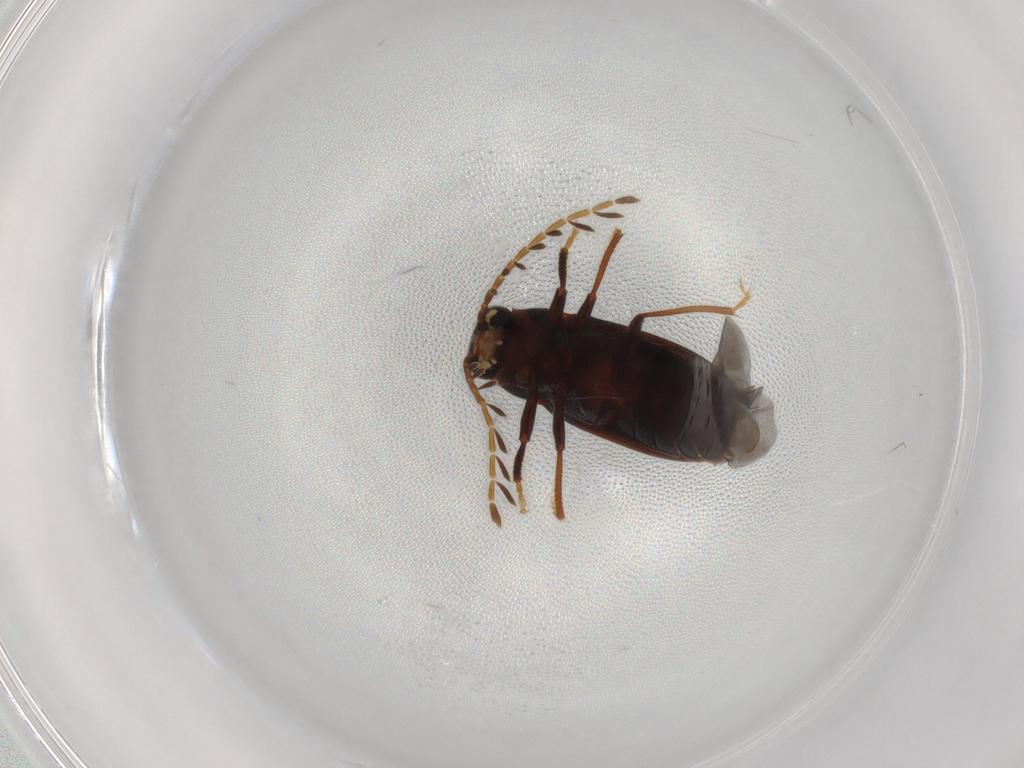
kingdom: Animalia
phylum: Arthropoda
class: Insecta
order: Coleoptera
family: Ptilodactylidae
